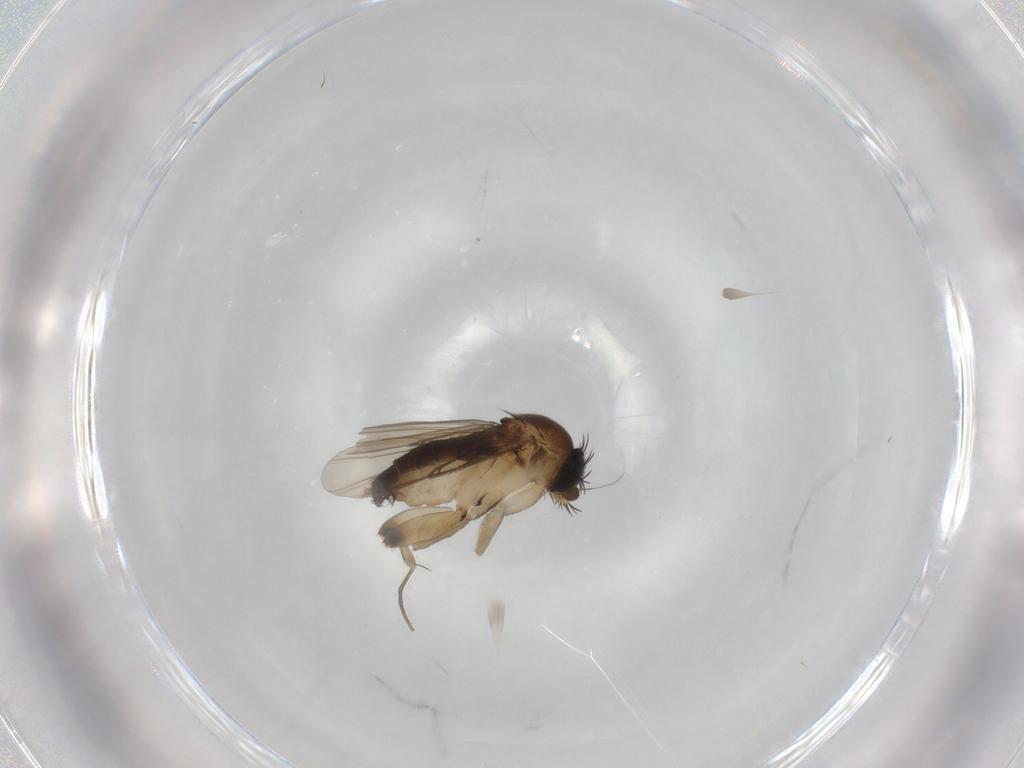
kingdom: Animalia
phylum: Arthropoda
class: Insecta
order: Diptera
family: Phoridae
